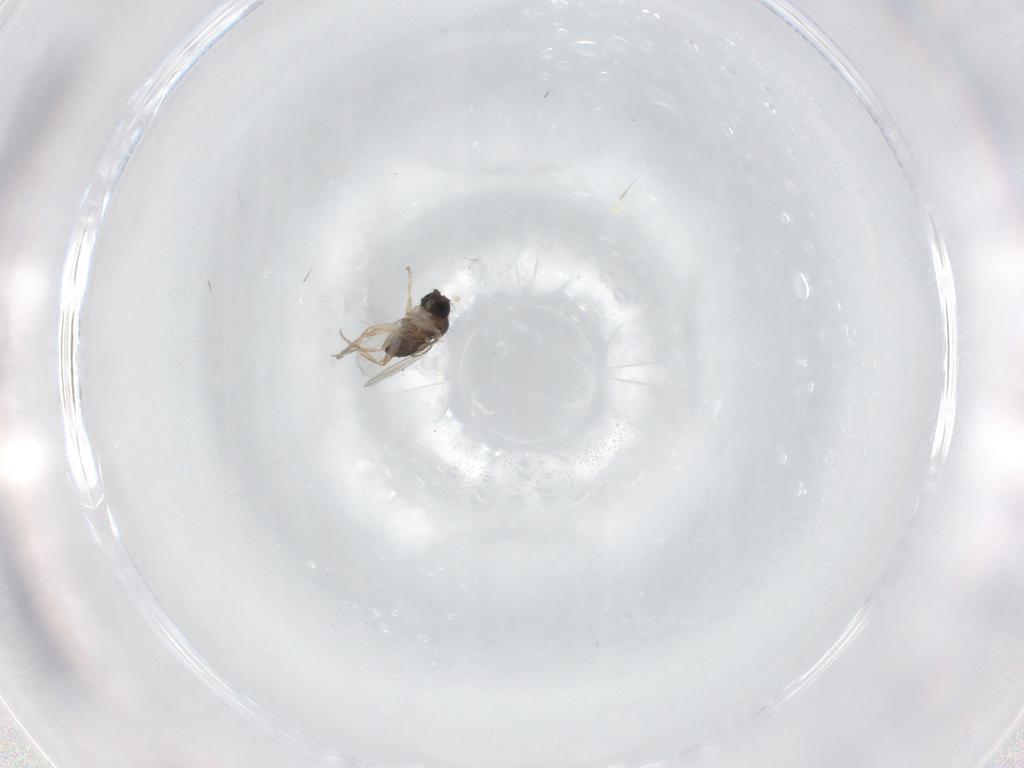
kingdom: Animalia
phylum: Arthropoda
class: Insecta
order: Diptera
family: Phoridae
